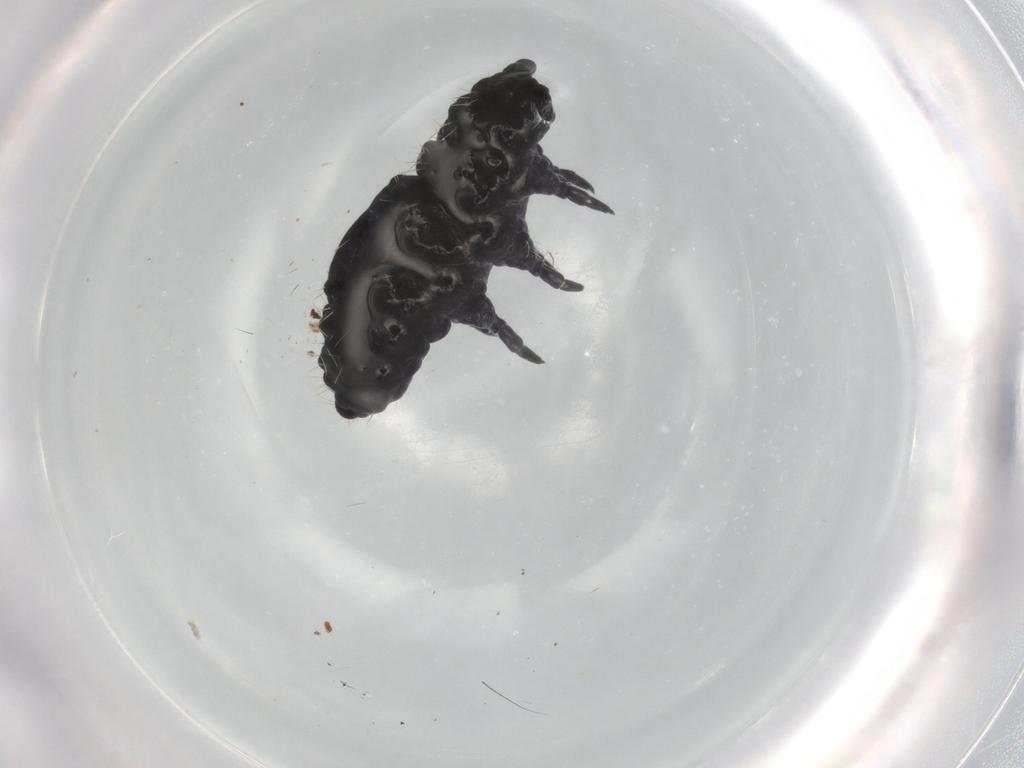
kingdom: Animalia
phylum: Arthropoda
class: Collembola
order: Poduromorpha
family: Neanuridae
